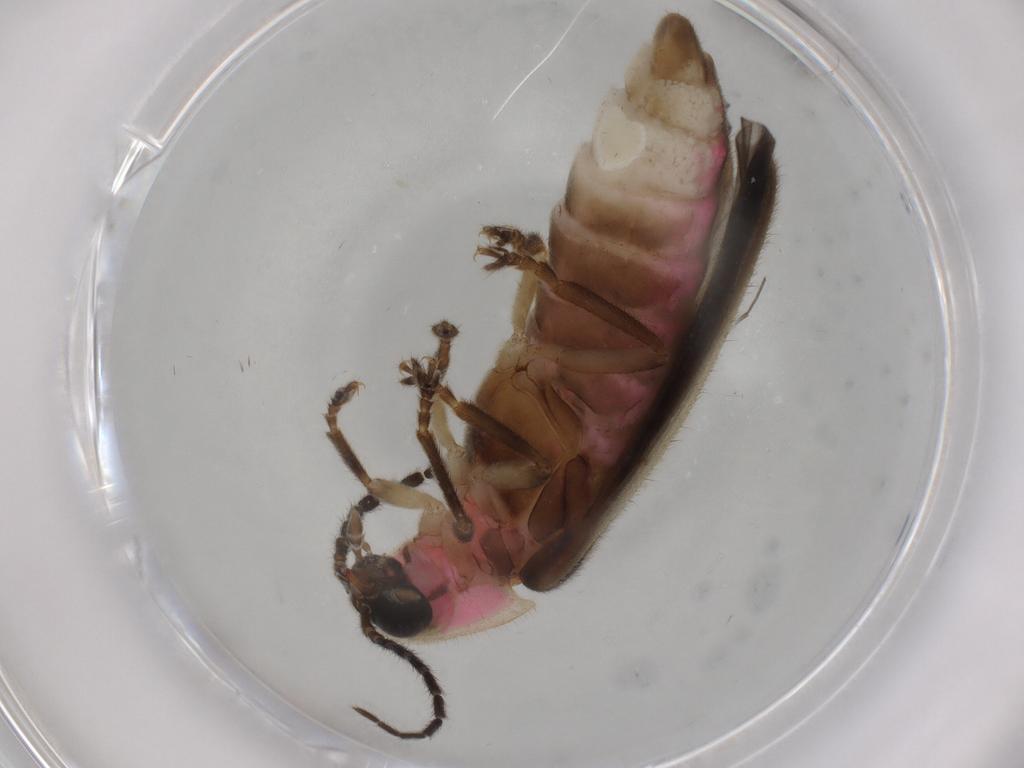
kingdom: Animalia
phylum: Arthropoda
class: Insecta
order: Coleoptera
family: Lampyridae
